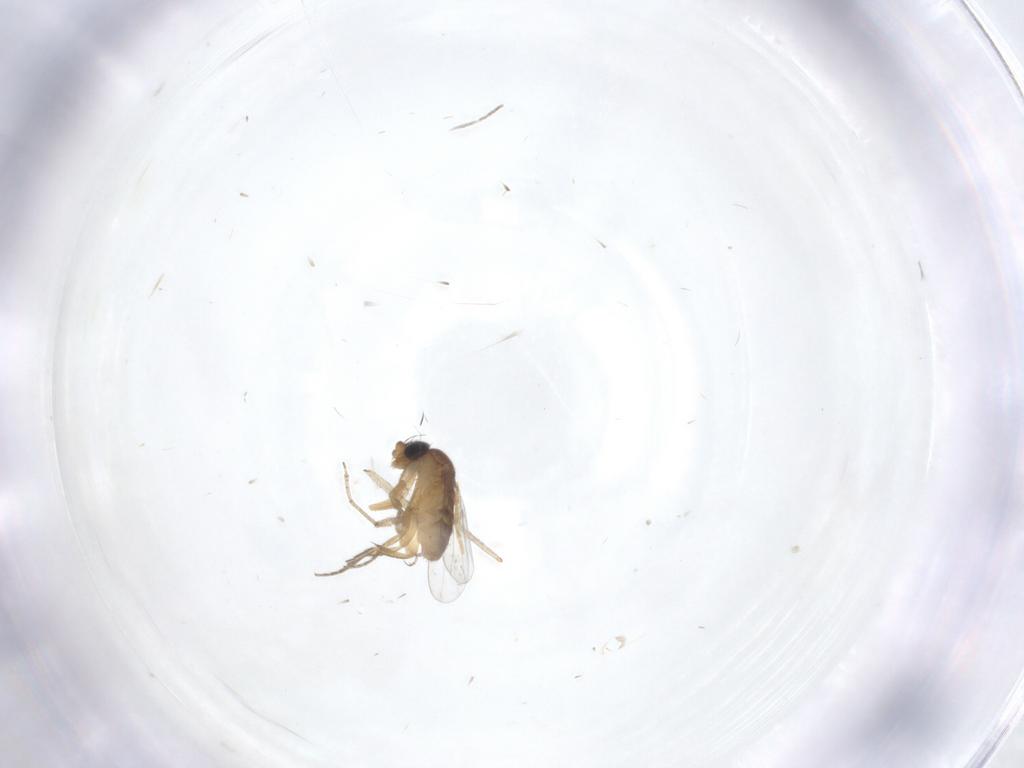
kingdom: Animalia
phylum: Arthropoda
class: Insecta
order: Diptera
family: Ceratopogonidae
